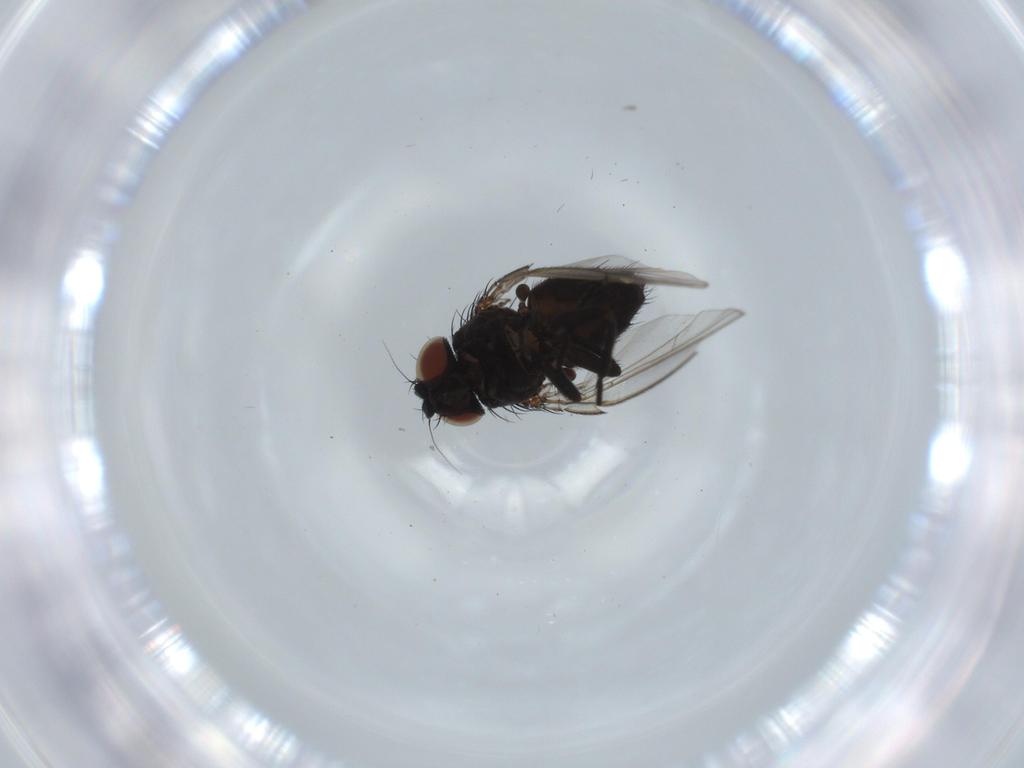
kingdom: Animalia
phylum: Arthropoda
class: Insecta
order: Diptera
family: Milichiidae
